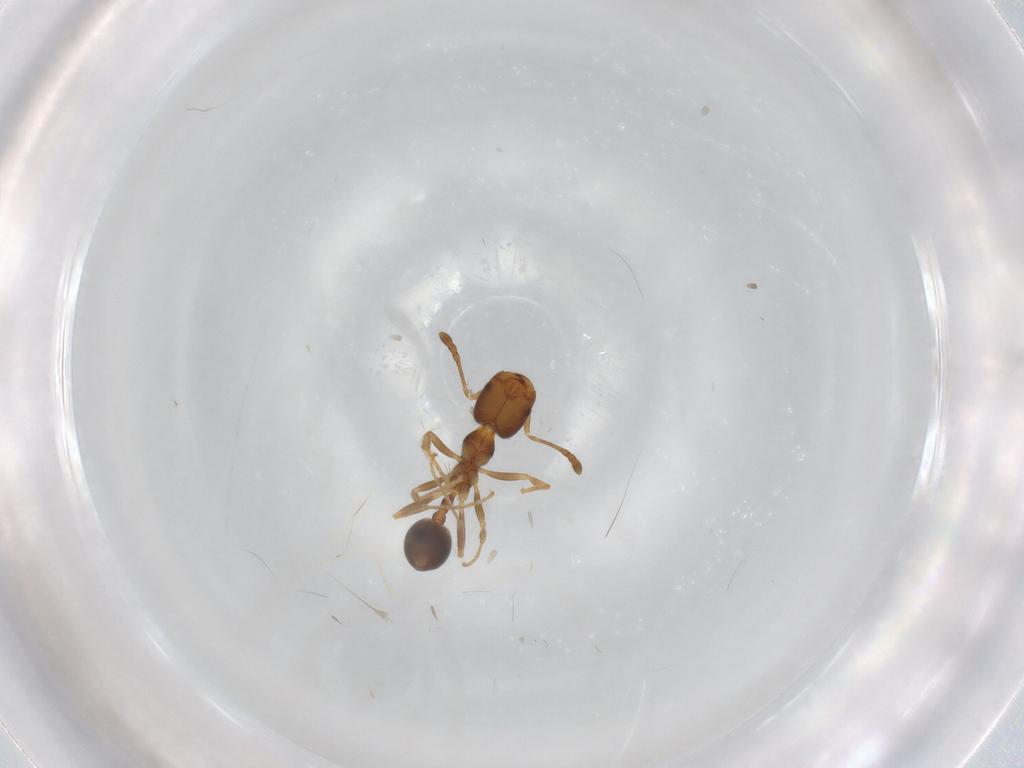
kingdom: Animalia
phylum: Arthropoda
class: Insecta
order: Hymenoptera
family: Formicidae
